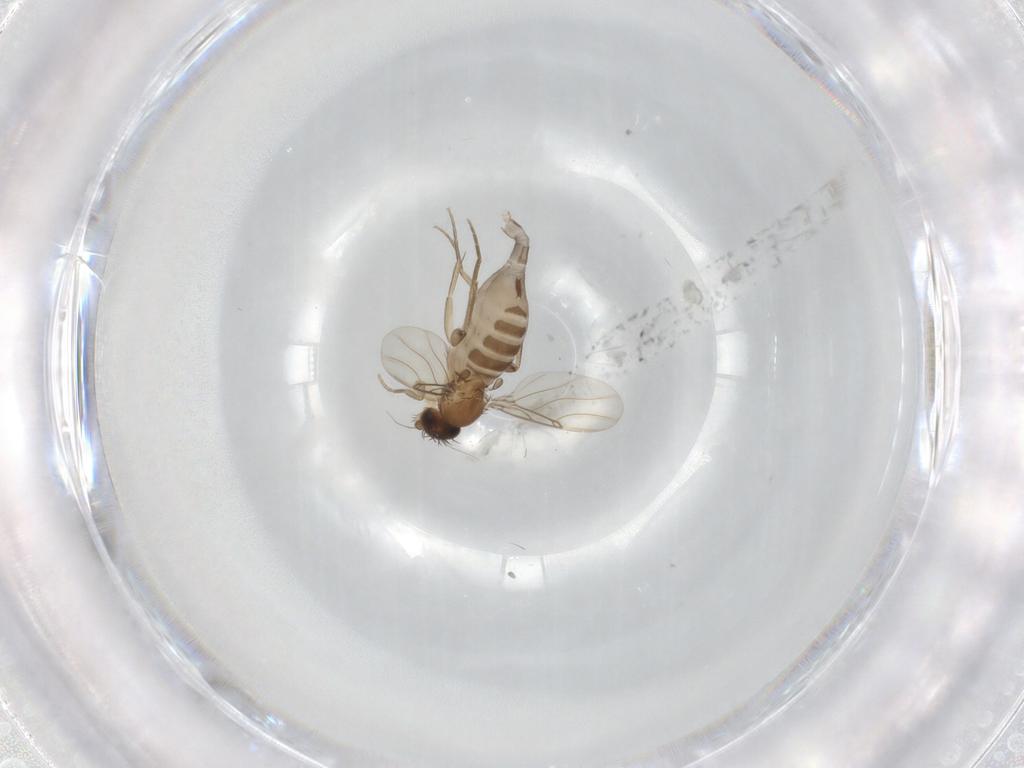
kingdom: Animalia
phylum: Arthropoda
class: Insecta
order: Diptera
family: Phoridae
